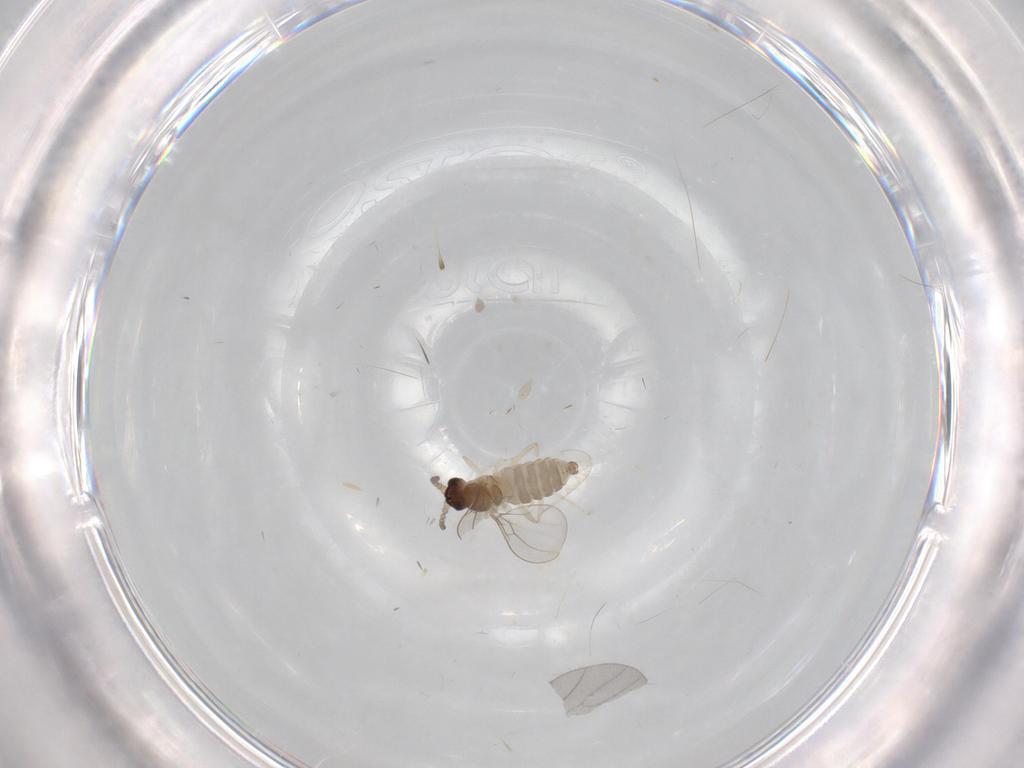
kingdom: Animalia
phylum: Arthropoda
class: Insecta
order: Diptera
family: Cecidomyiidae
